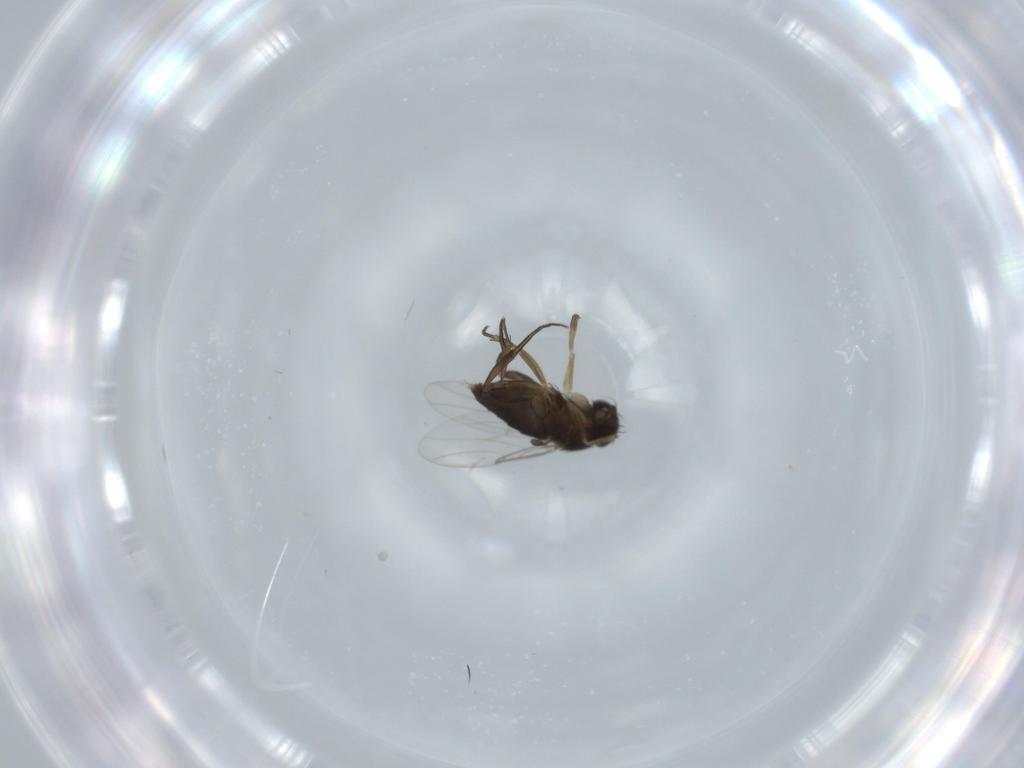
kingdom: Animalia
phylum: Arthropoda
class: Insecta
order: Diptera
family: Phoridae
